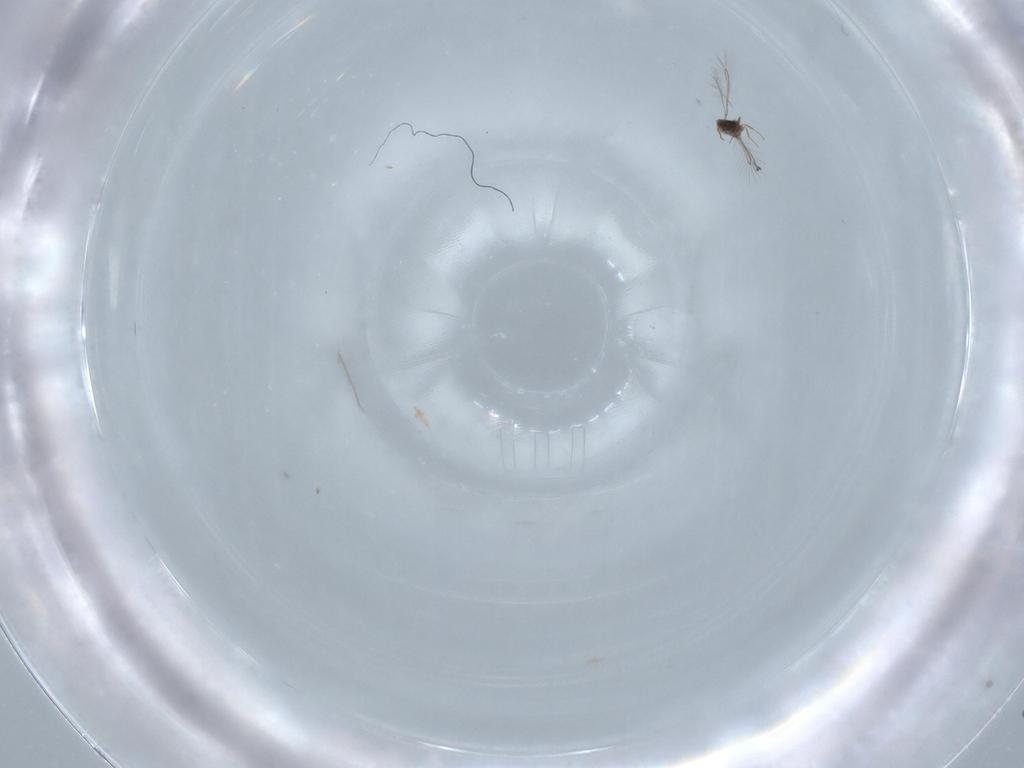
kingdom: Animalia
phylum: Arthropoda
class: Insecta
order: Hymenoptera
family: Mymaridae
